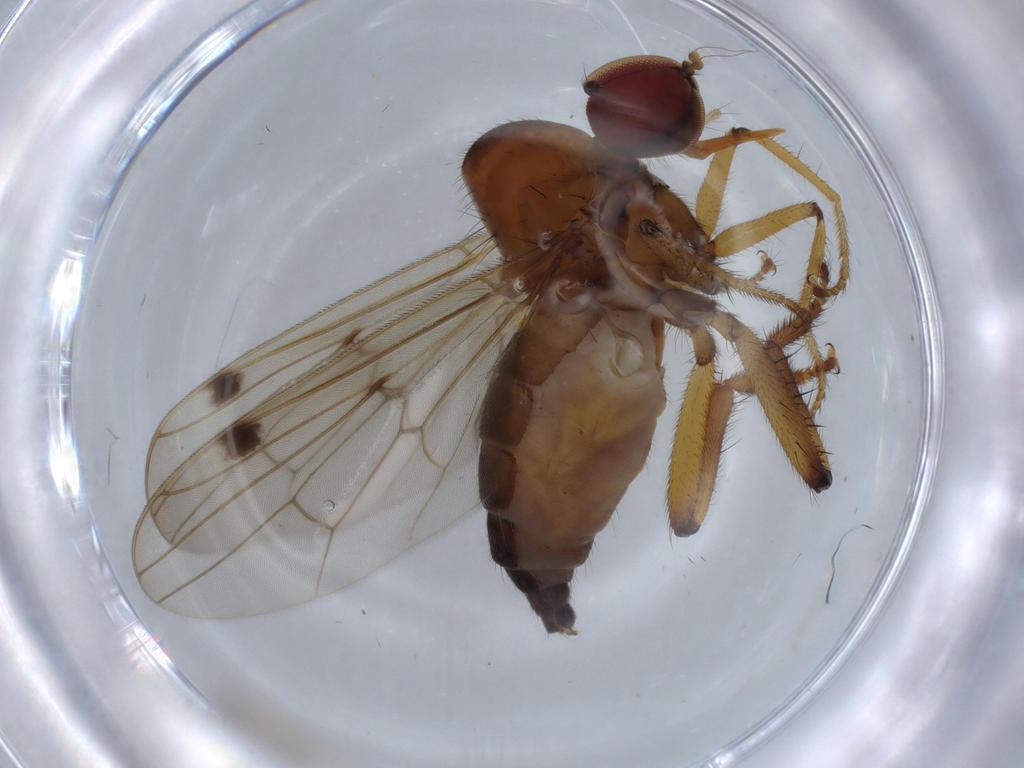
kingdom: Animalia
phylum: Arthropoda
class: Insecta
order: Diptera
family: Hybotidae
